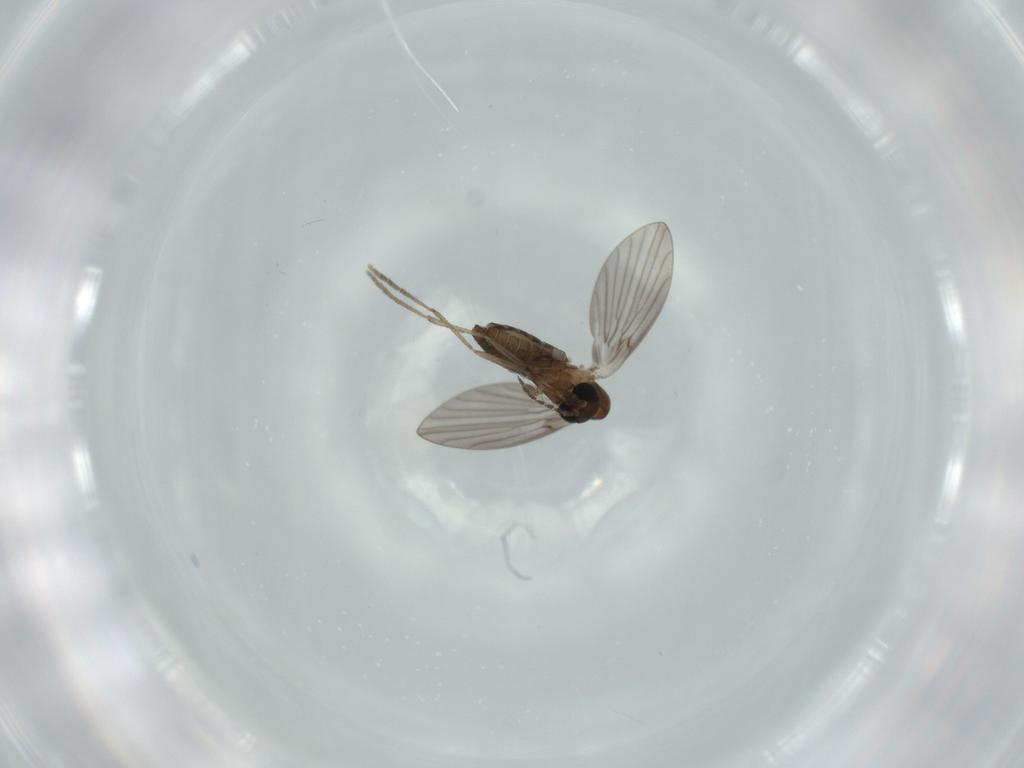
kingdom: Animalia
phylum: Arthropoda
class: Insecta
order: Diptera
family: Psychodidae
